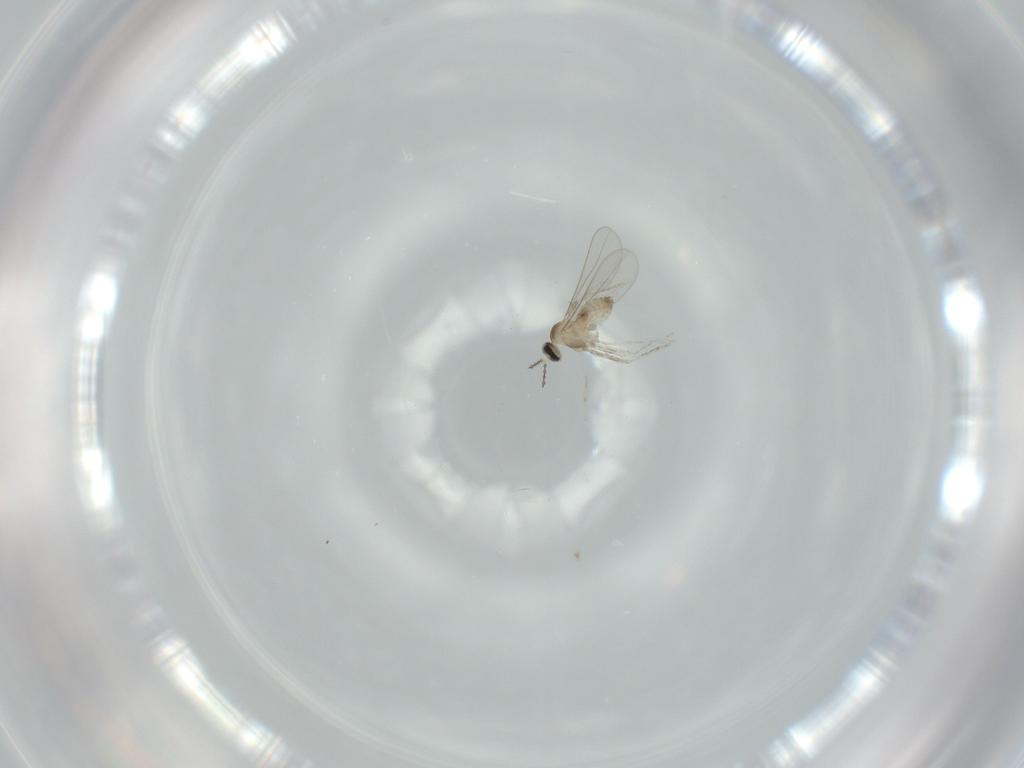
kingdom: Animalia
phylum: Arthropoda
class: Insecta
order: Diptera
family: Cecidomyiidae
